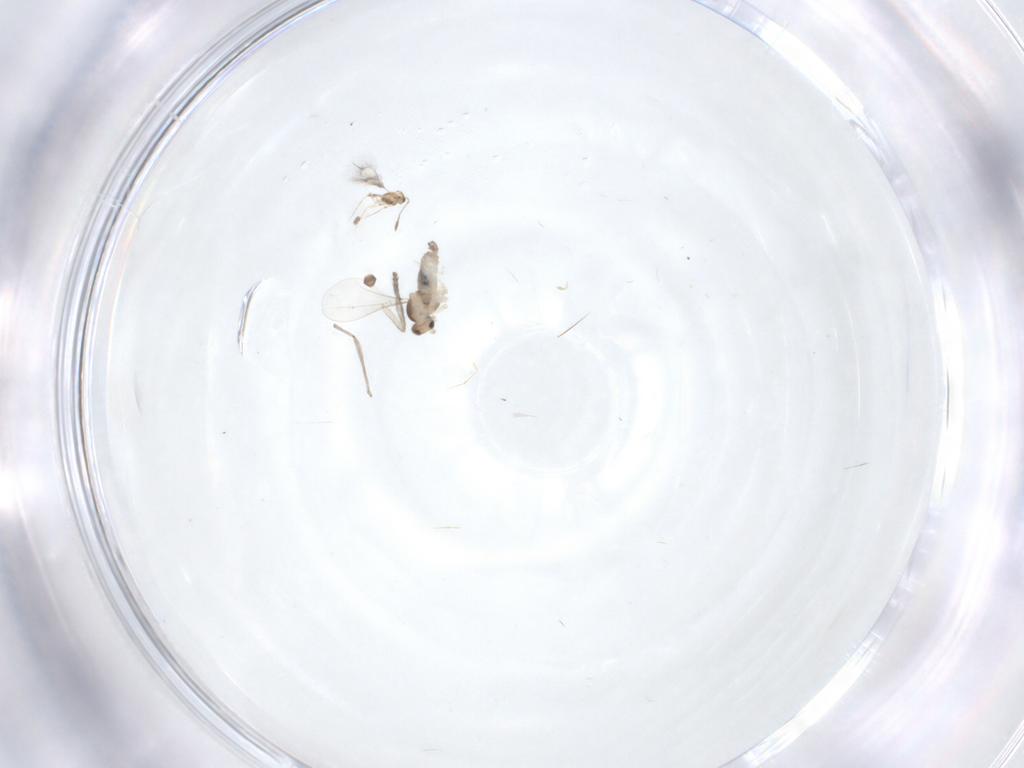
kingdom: Animalia
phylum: Arthropoda
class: Insecta
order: Diptera
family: Cecidomyiidae
